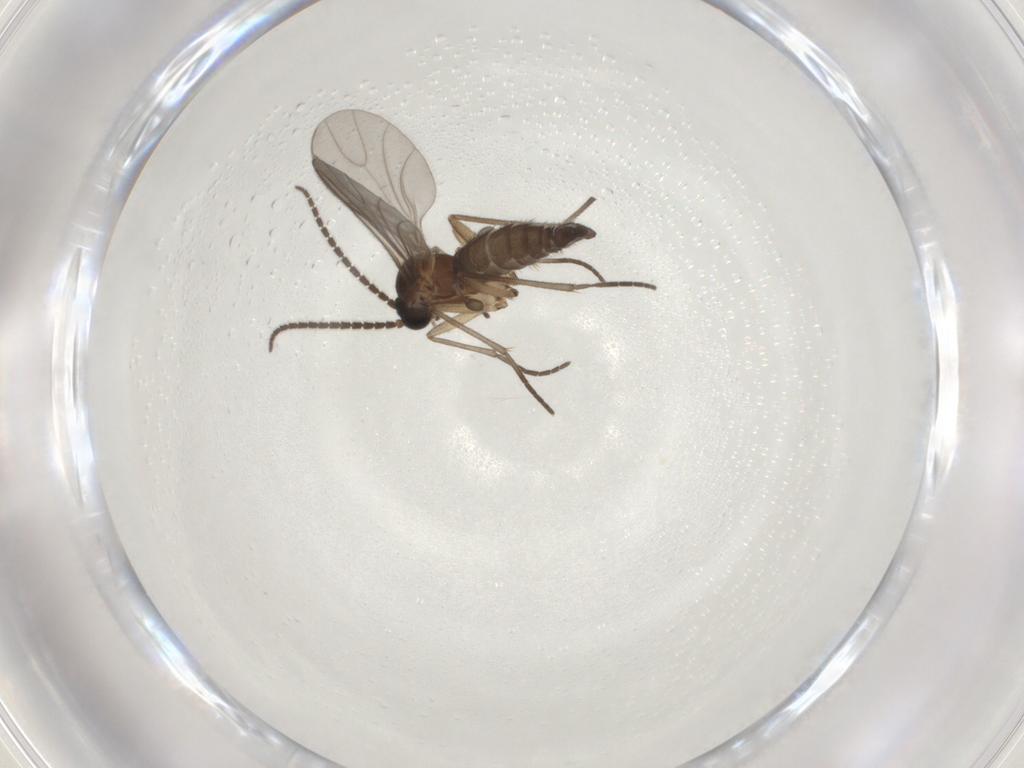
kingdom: Animalia
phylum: Arthropoda
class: Insecta
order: Diptera
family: Sciaridae
